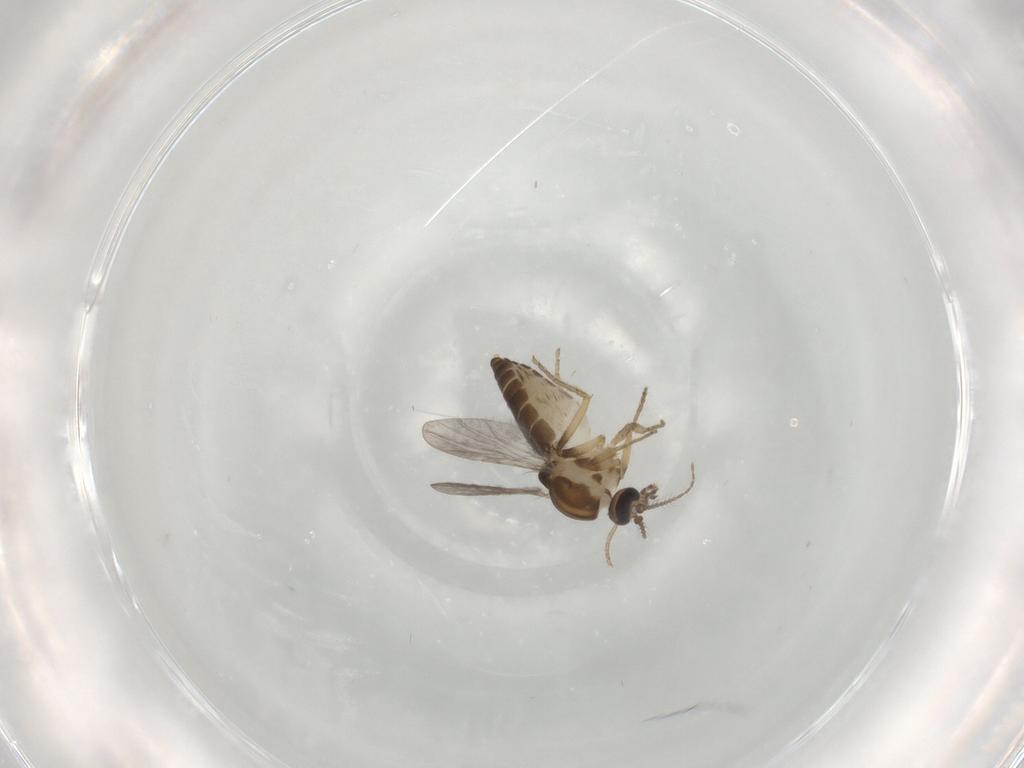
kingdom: Animalia
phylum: Arthropoda
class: Insecta
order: Diptera
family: Ceratopogonidae
